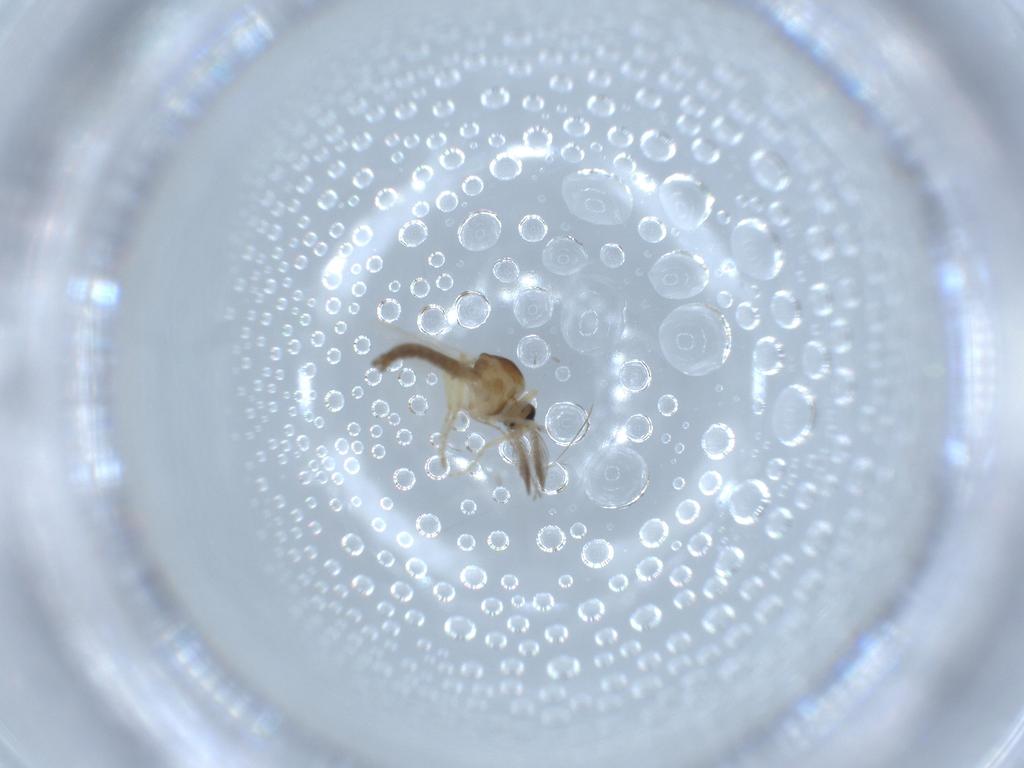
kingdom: Animalia
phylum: Arthropoda
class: Insecta
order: Diptera
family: Ceratopogonidae
